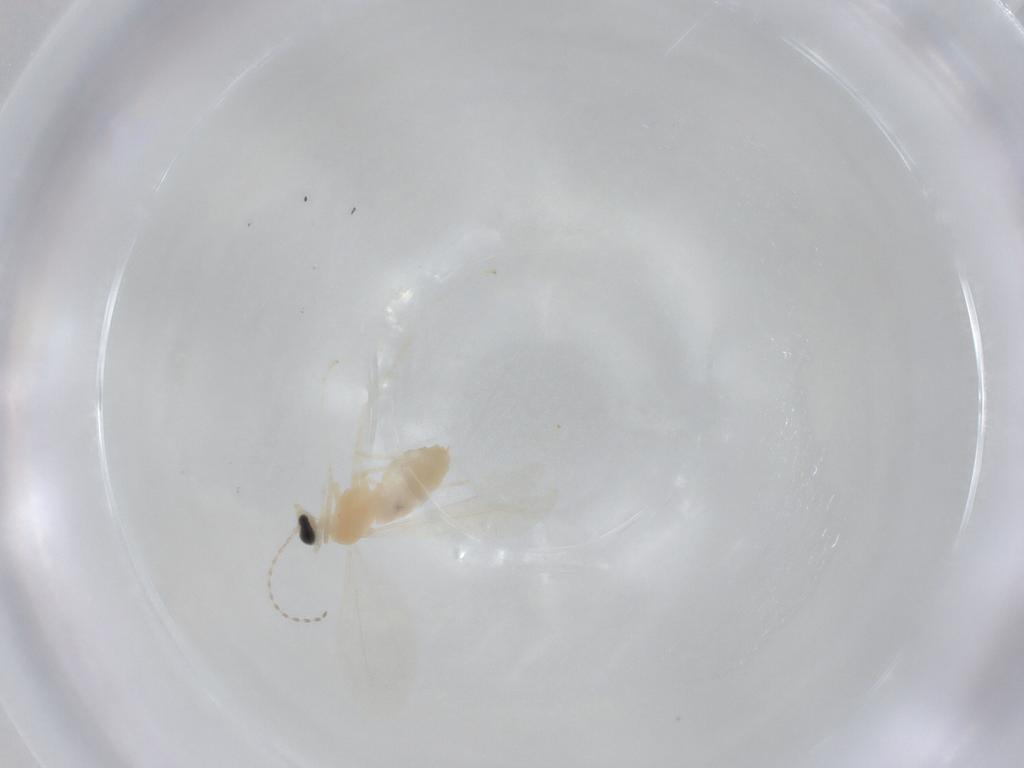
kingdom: Animalia
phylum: Arthropoda
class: Insecta
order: Diptera
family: Cecidomyiidae
